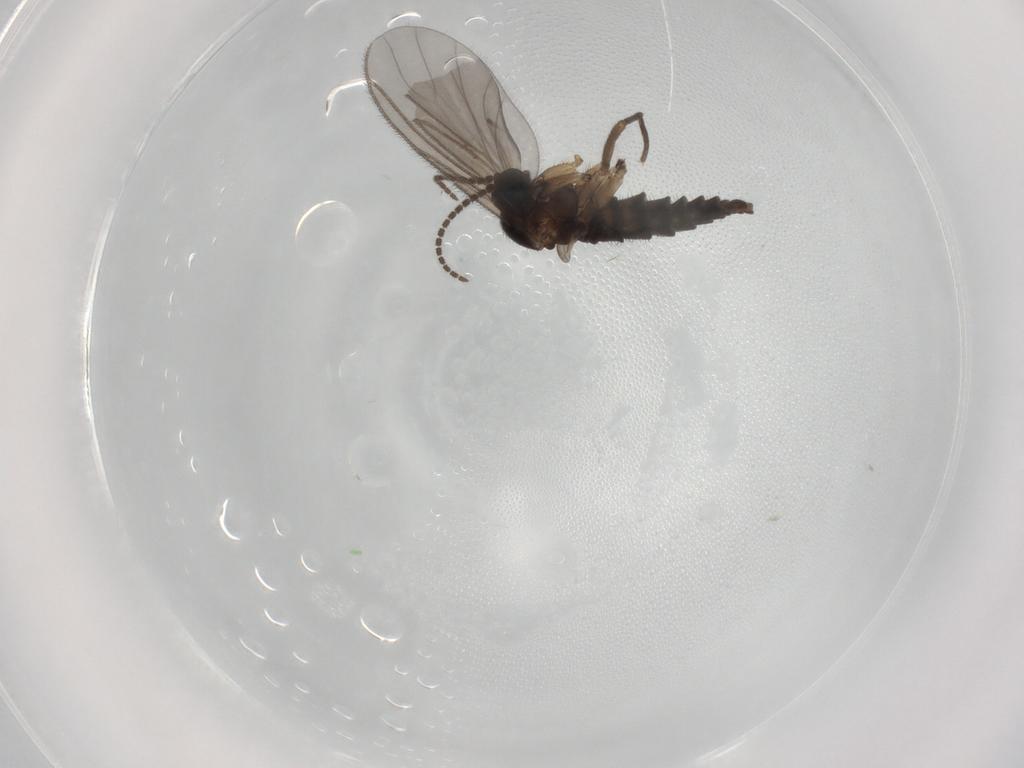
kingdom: Animalia
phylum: Arthropoda
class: Insecta
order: Diptera
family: Sciaridae
